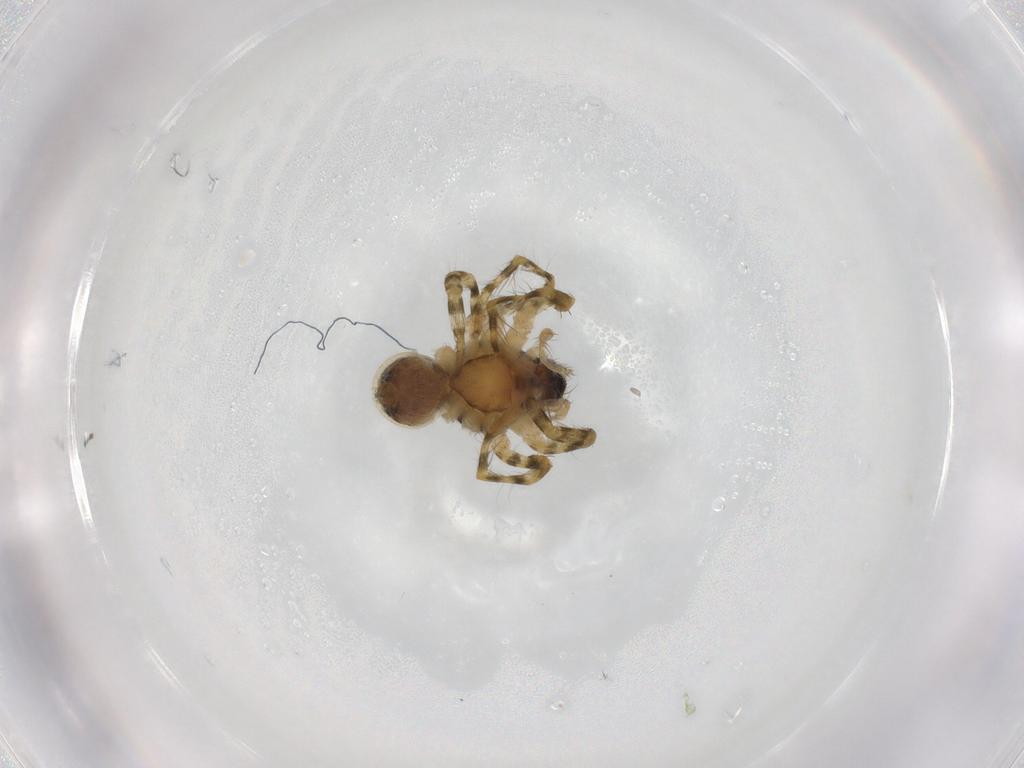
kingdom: Animalia
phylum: Arthropoda
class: Arachnida
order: Araneae
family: Lycosidae
